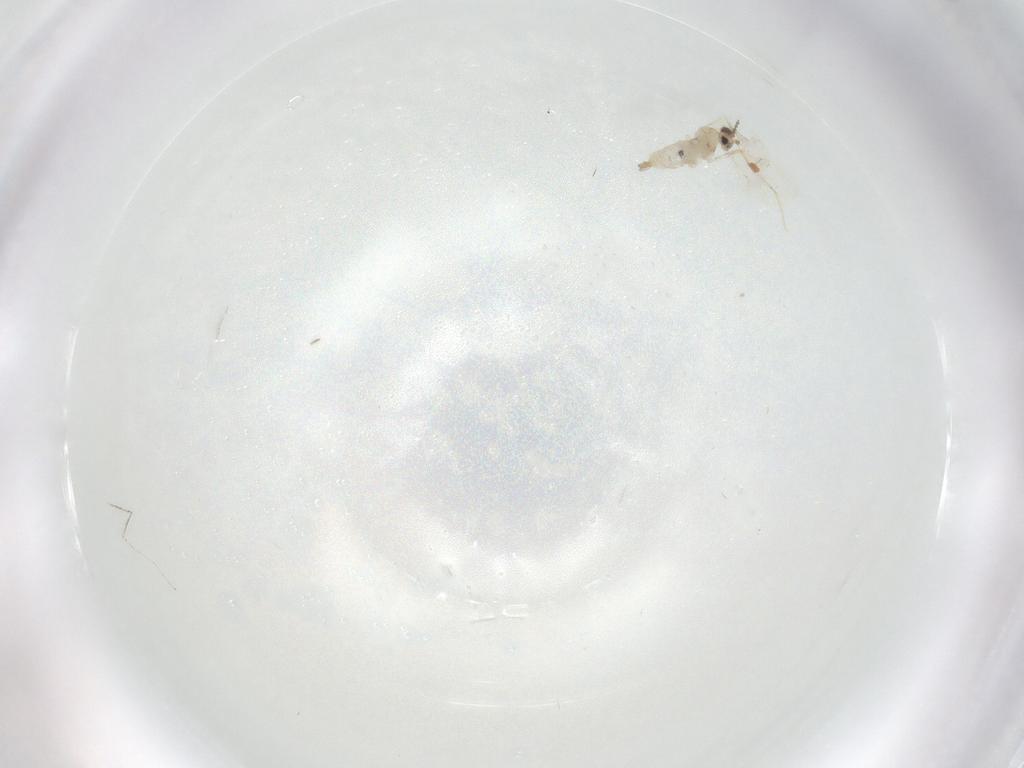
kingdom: Animalia
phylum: Arthropoda
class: Insecta
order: Diptera
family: Cecidomyiidae
